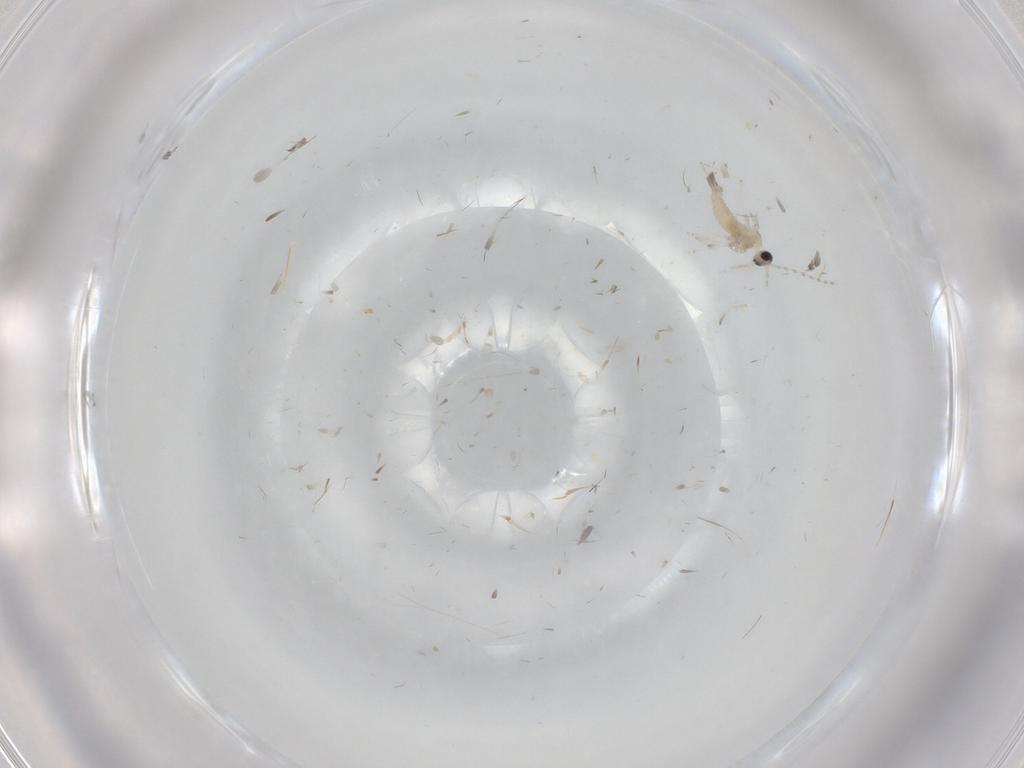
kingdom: Animalia
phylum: Arthropoda
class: Insecta
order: Diptera
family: Cecidomyiidae
